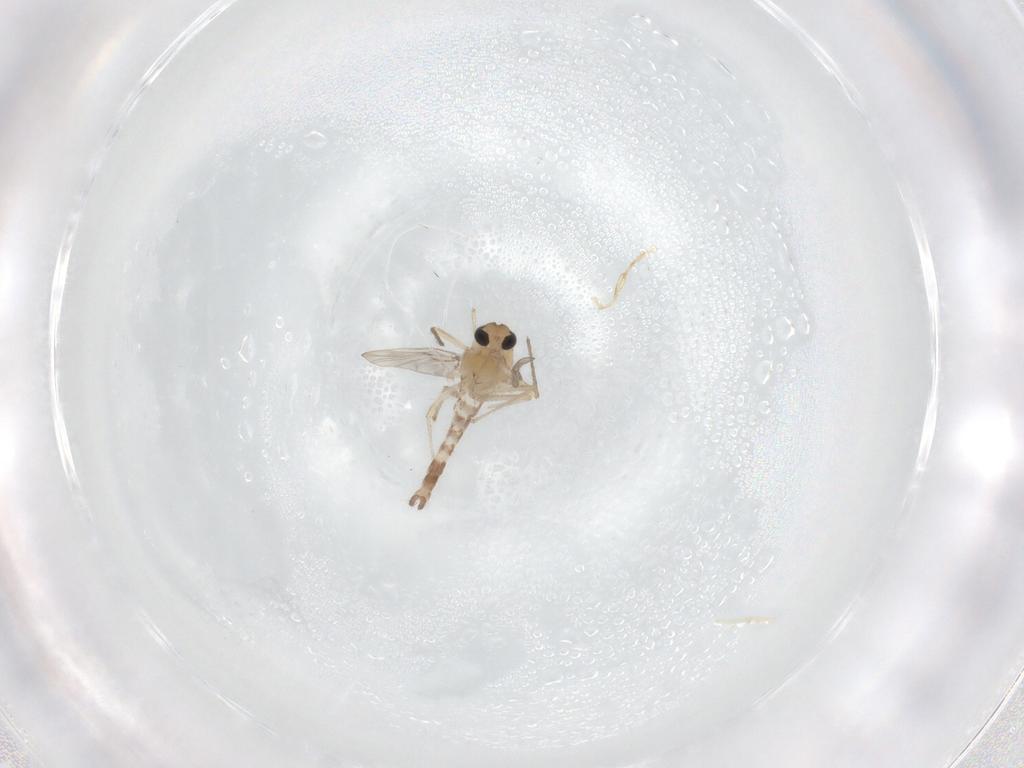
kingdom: Animalia
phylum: Arthropoda
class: Insecta
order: Diptera
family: Chironomidae
